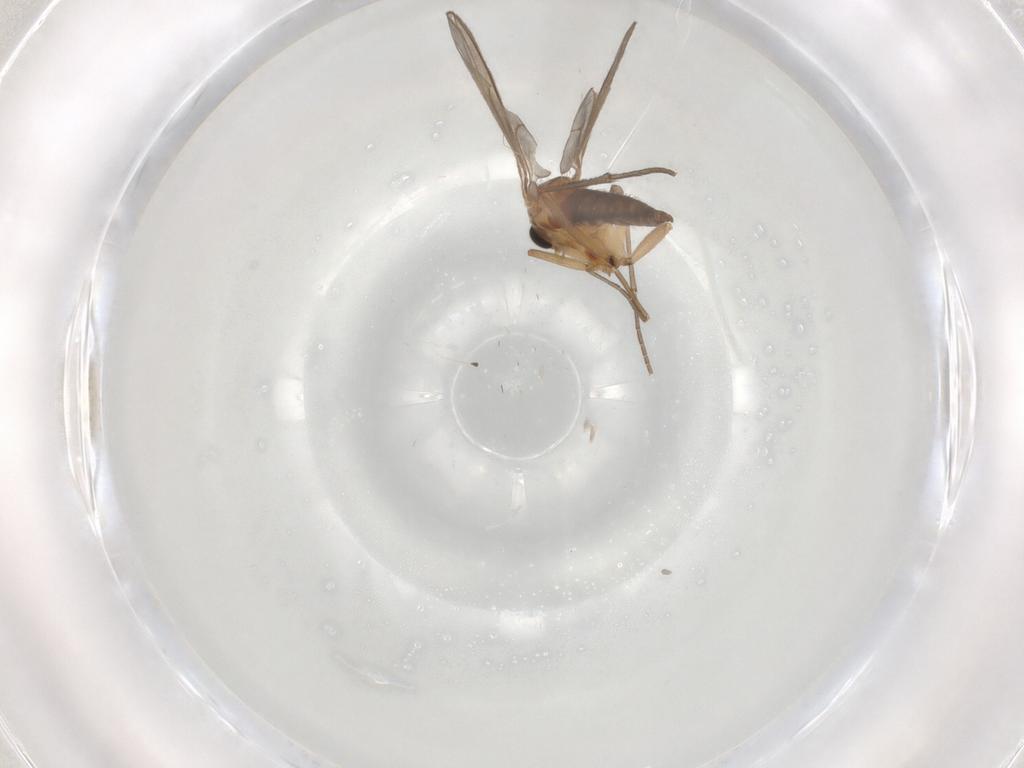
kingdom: Animalia
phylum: Arthropoda
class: Insecta
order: Diptera
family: Sciaridae
